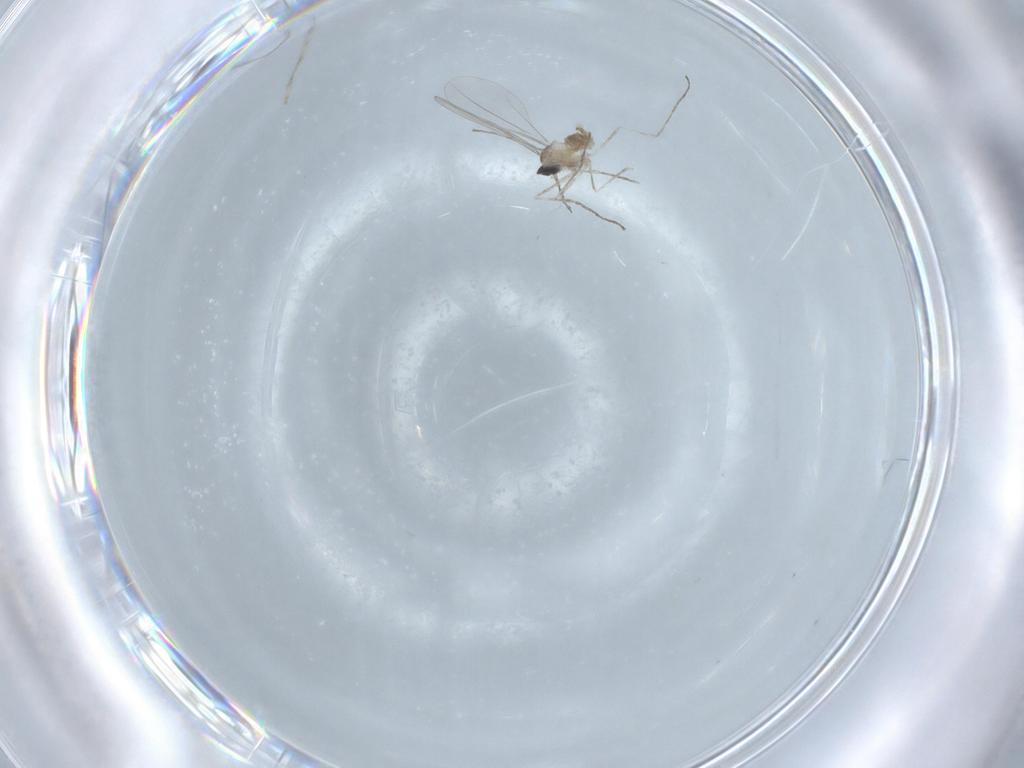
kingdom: Animalia
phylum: Arthropoda
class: Insecta
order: Diptera
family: Cecidomyiidae
